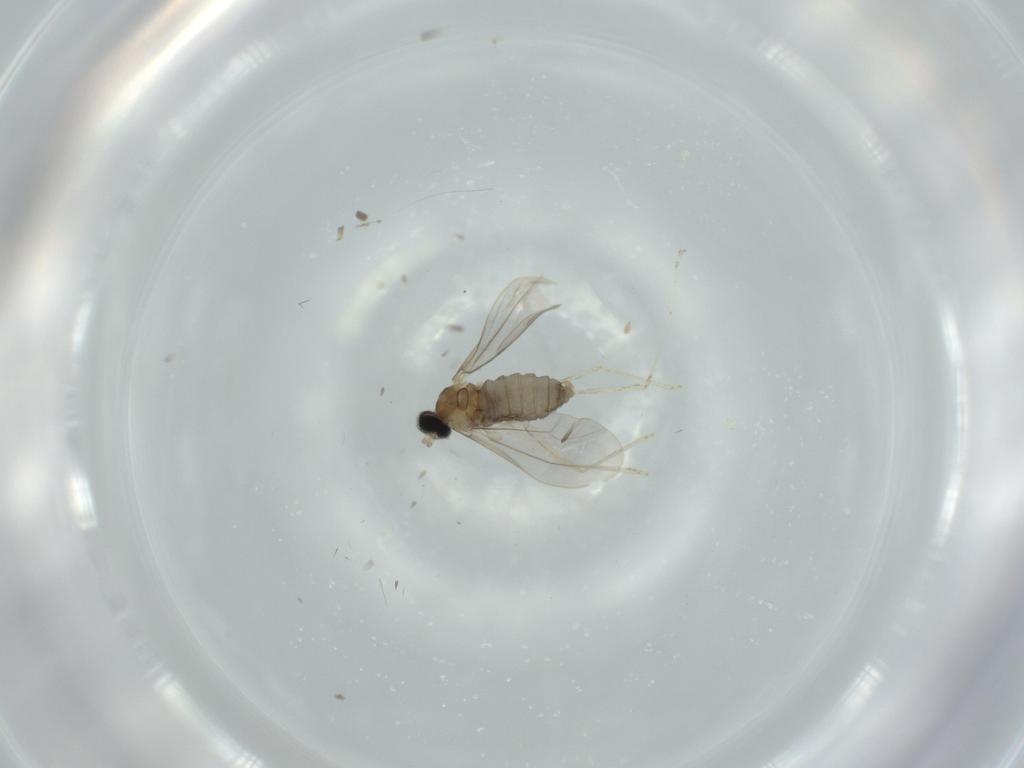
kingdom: Animalia
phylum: Arthropoda
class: Insecta
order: Diptera
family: Cecidomyiidae
